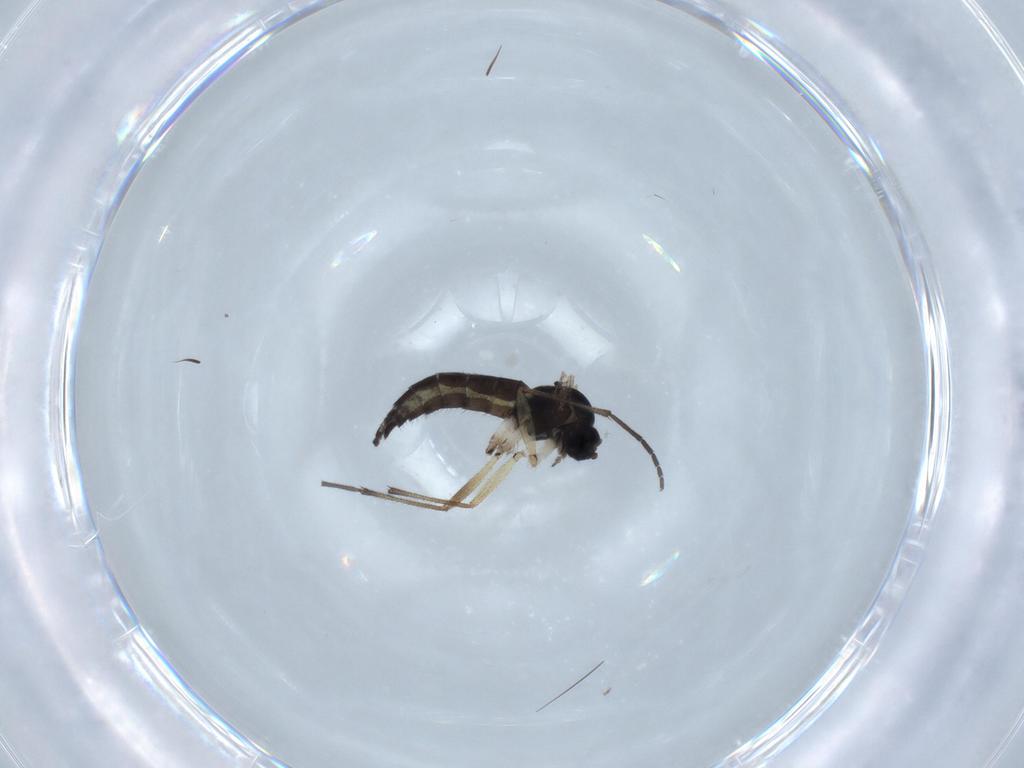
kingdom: Animalia
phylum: Arthropoda
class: Insecta
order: Diptera
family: Sciaridae
